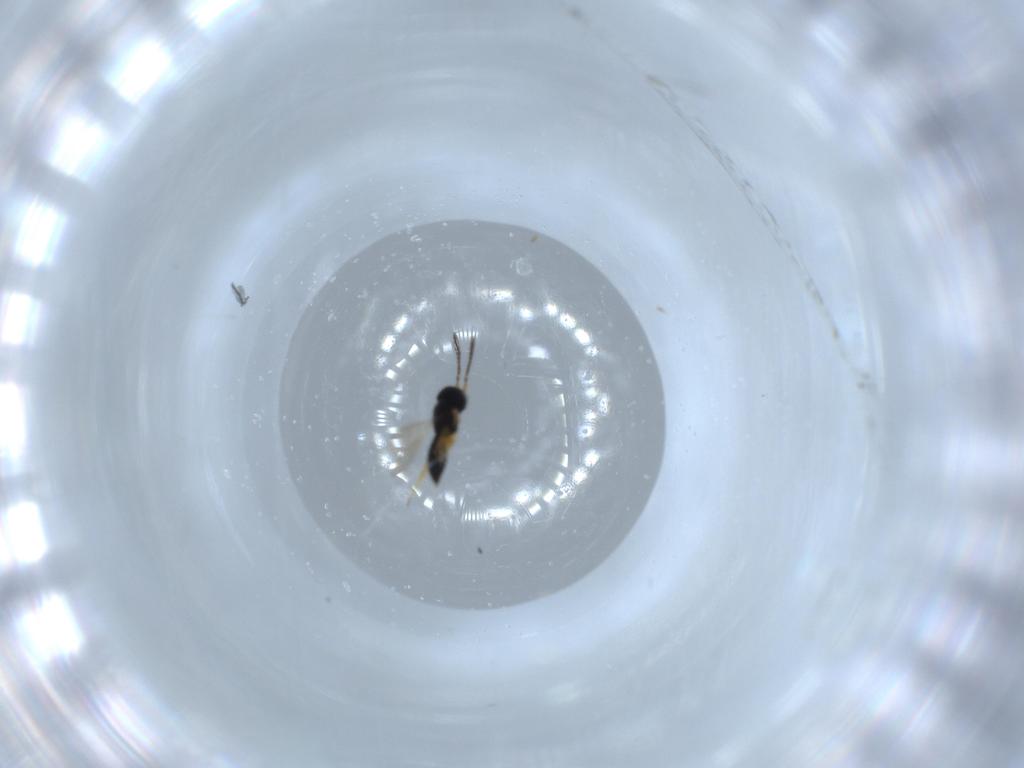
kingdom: Animalia
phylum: Arthropoda
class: Insecta
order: Hymenoptera
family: Scelionidae
